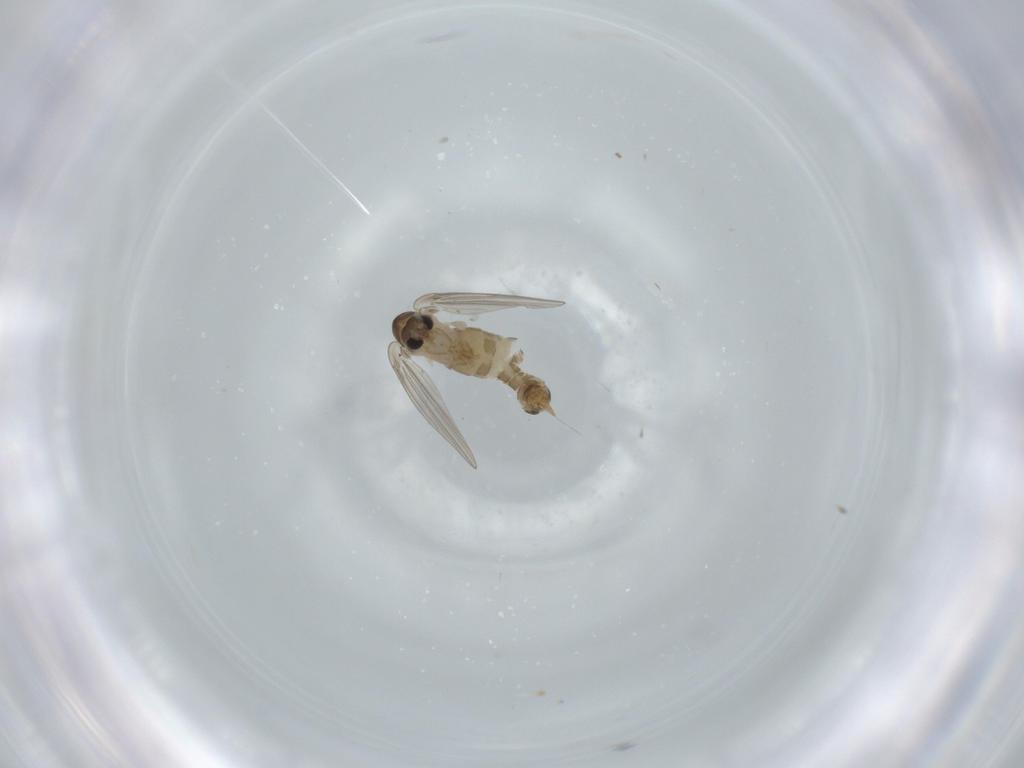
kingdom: Animalia
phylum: Arthropoda
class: Insecta
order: Diptera
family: Psychodidae
